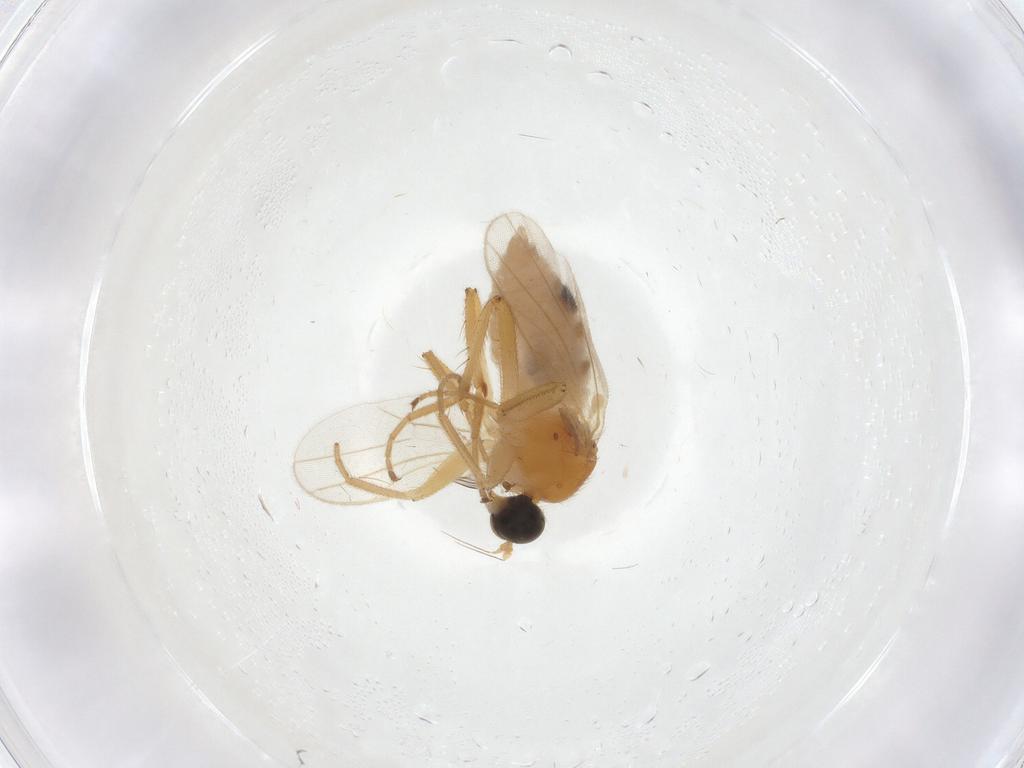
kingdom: Animalia
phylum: Arthropoda
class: Insecta
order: Diptera
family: Hybotidae
